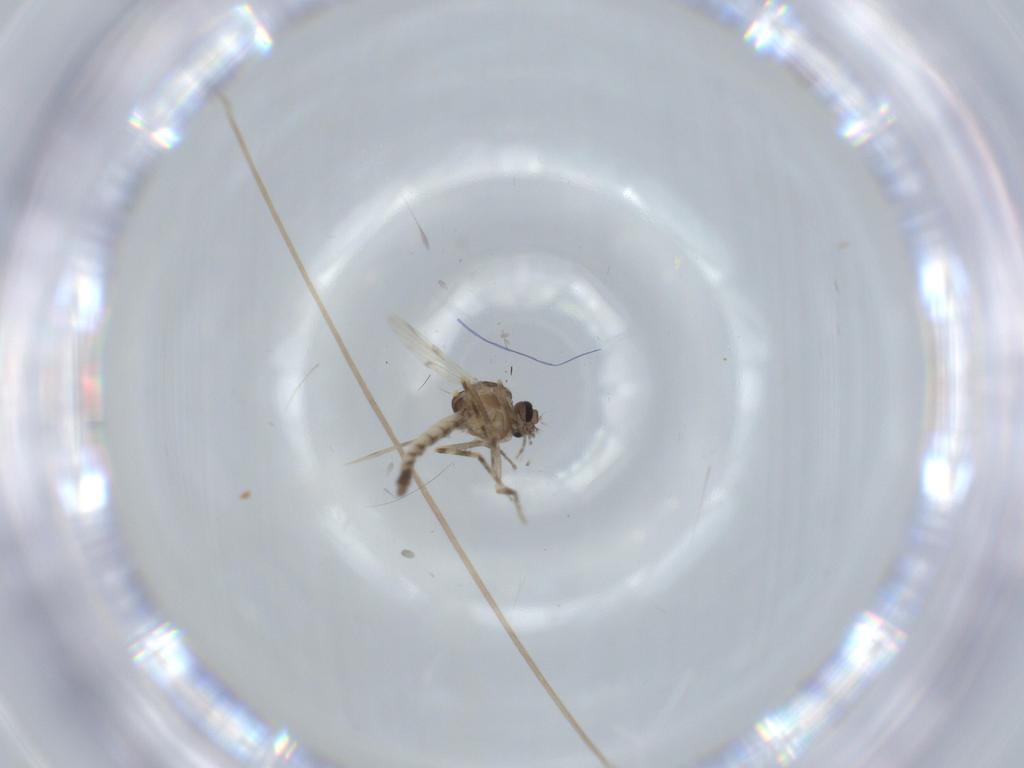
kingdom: Animalia
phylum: Arthropoda
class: Insecta
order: Diptera
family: Ceratopogonidae
